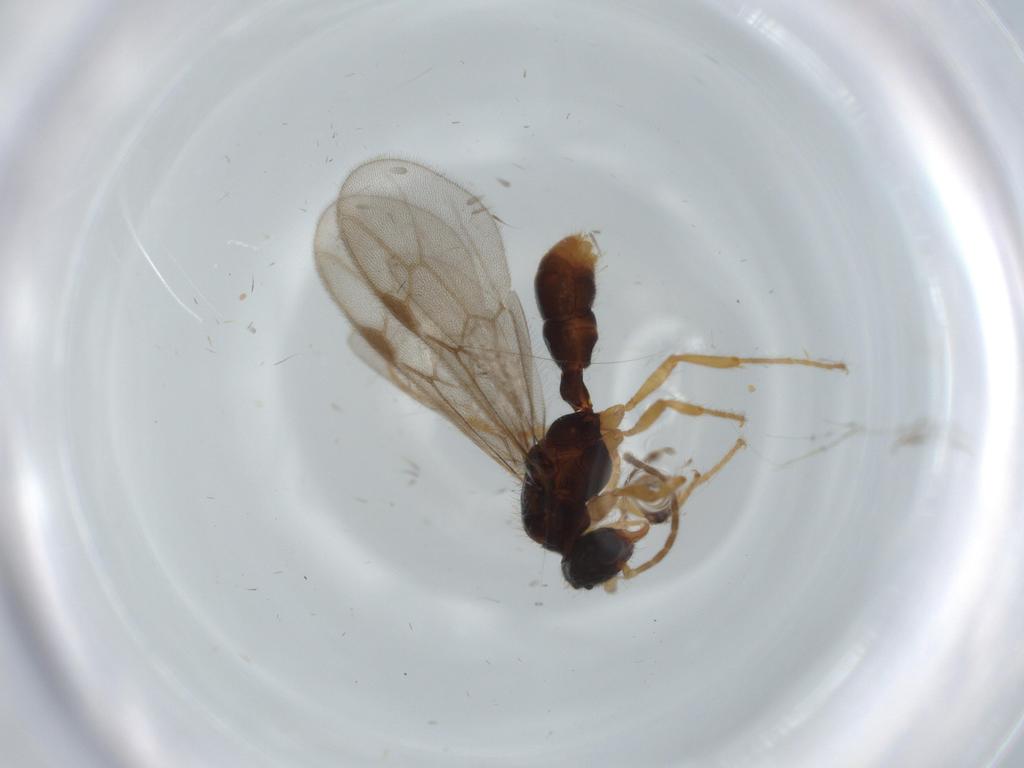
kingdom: Animalia
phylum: Arthropoda
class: Insecta
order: Hymenoptera
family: Formicidae
